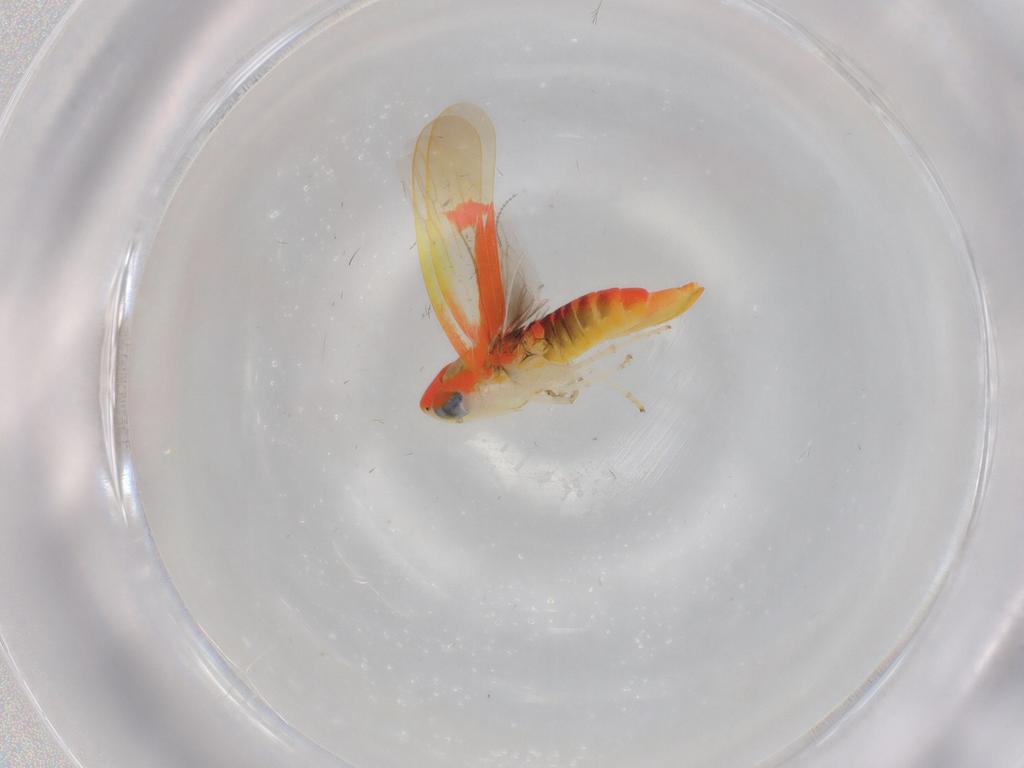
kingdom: Animalia
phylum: Arthropoda
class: Insecta
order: Hemiptera
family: Cicadellidae
